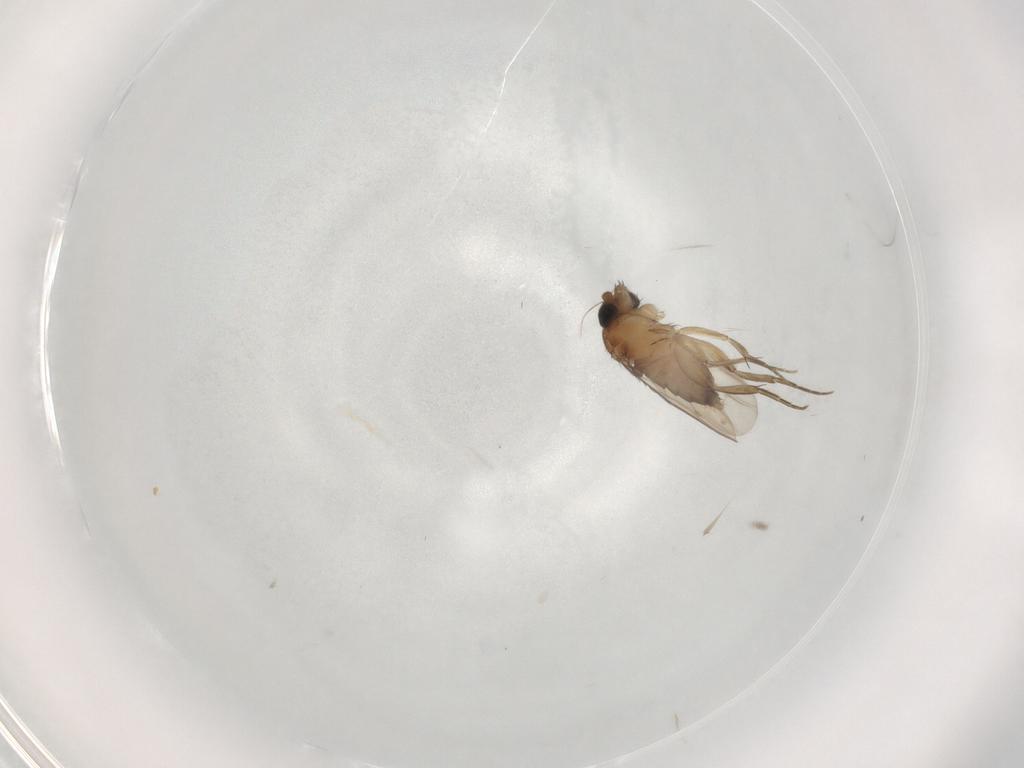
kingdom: Animalia
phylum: Arthropoda
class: Insecta
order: Diptera
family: Phoridae
